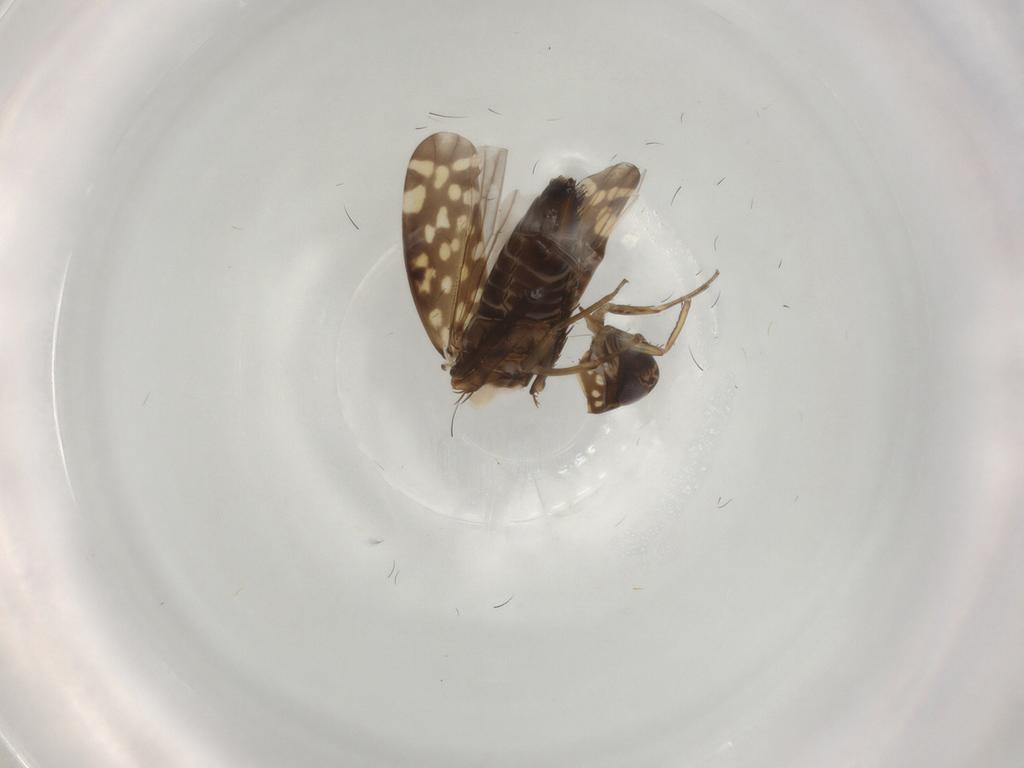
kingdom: Animalia
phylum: Arthropoda
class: Insecta
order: Hemiptera
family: Cicadellidae
